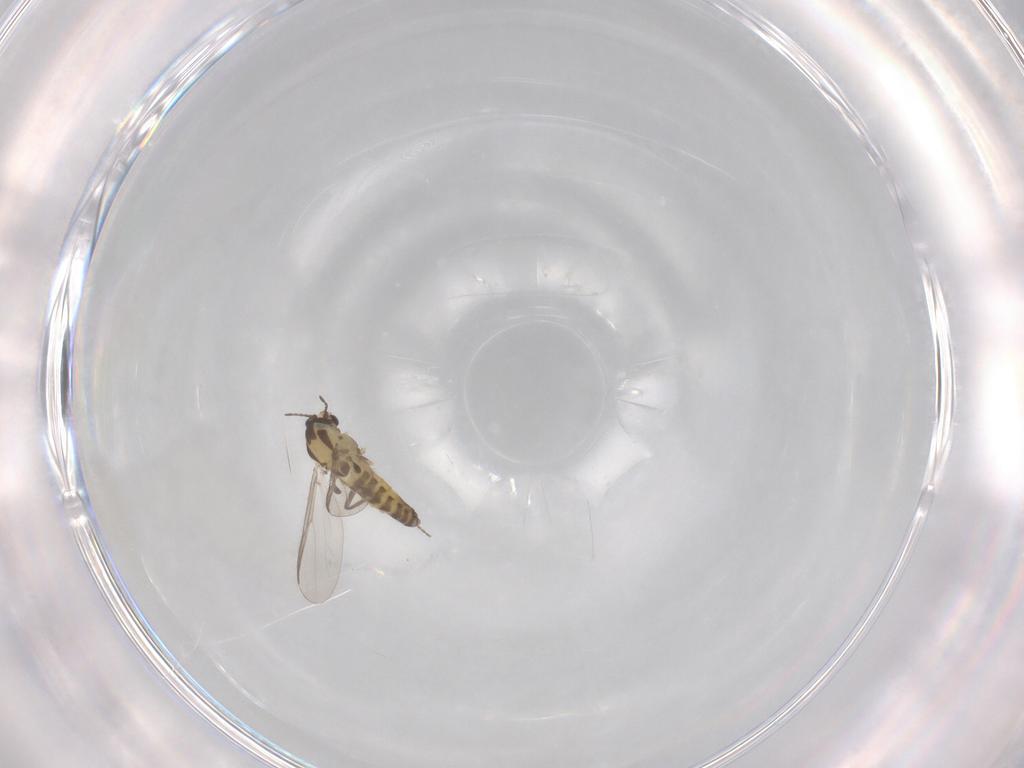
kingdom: Animalia
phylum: Arthropoda
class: Insecta
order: Diptera
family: Chironomidae
